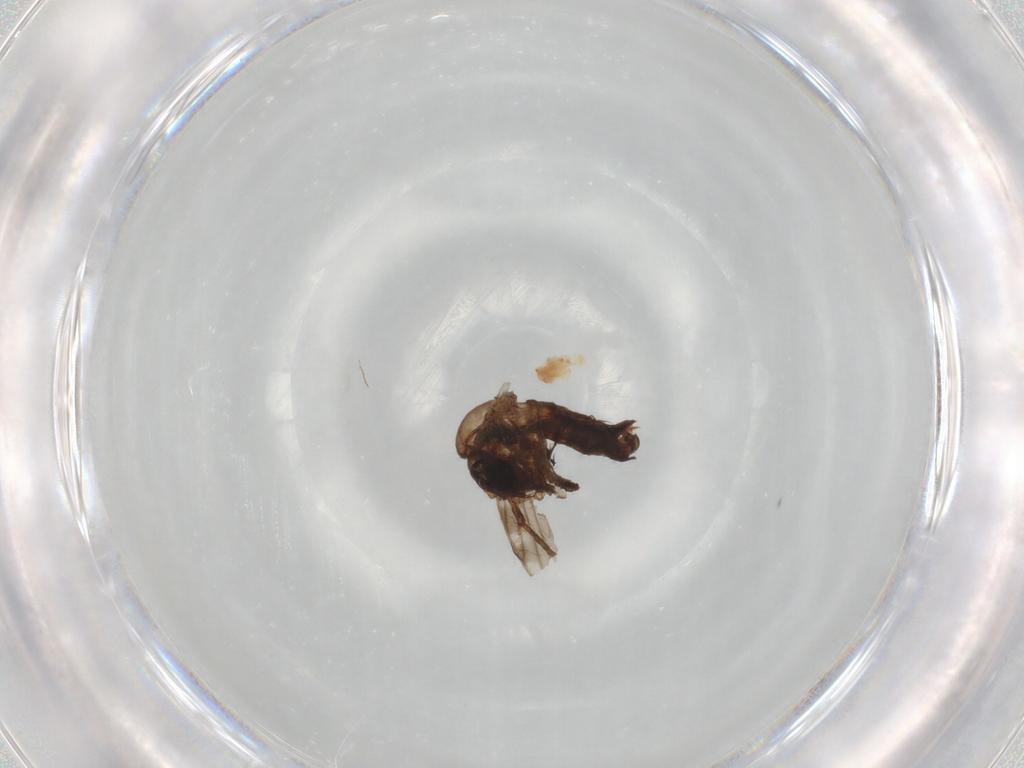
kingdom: Animalia
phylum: Arthropoda
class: Insecta
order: Diptera
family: Chironomidae
